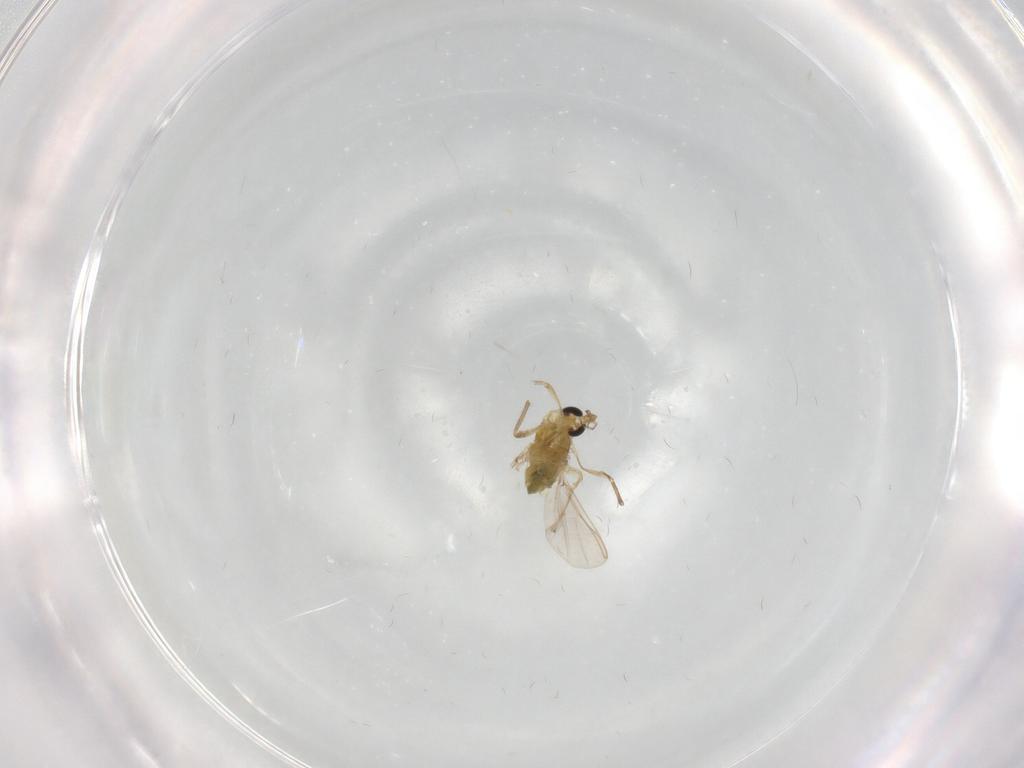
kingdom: Animalia
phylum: Arthropoda
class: Insecta
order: Diptera
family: Chironomidae
